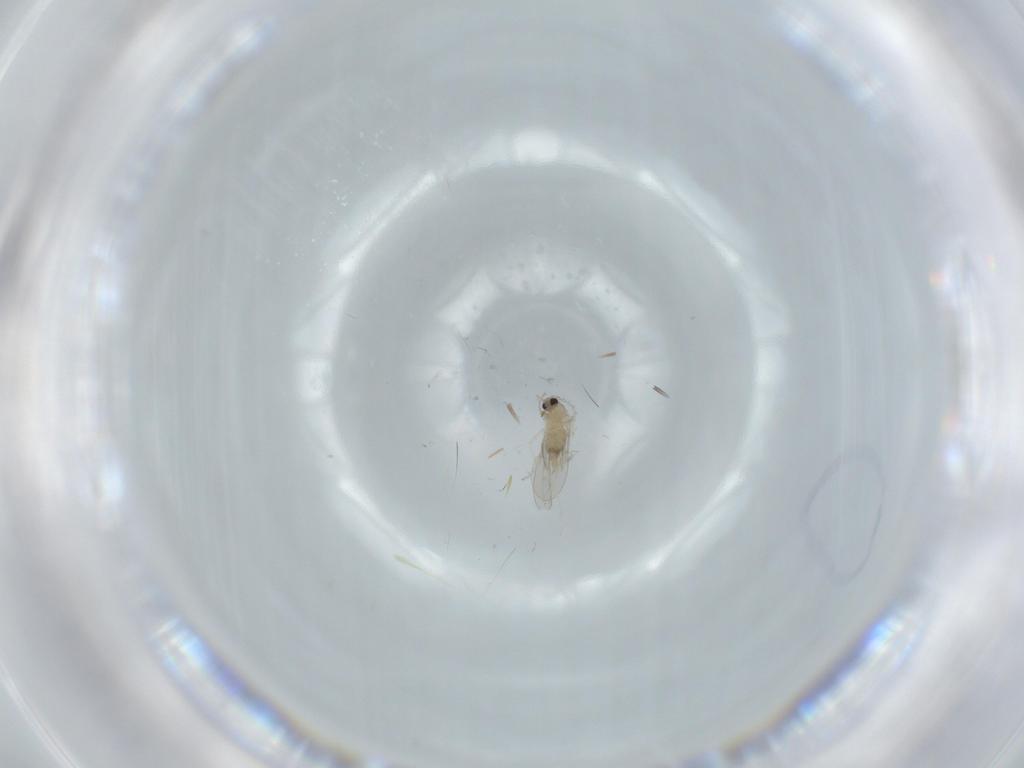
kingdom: Animalia
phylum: Arthropoda
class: Insecta
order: Diptera
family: Cecidomyiidae
